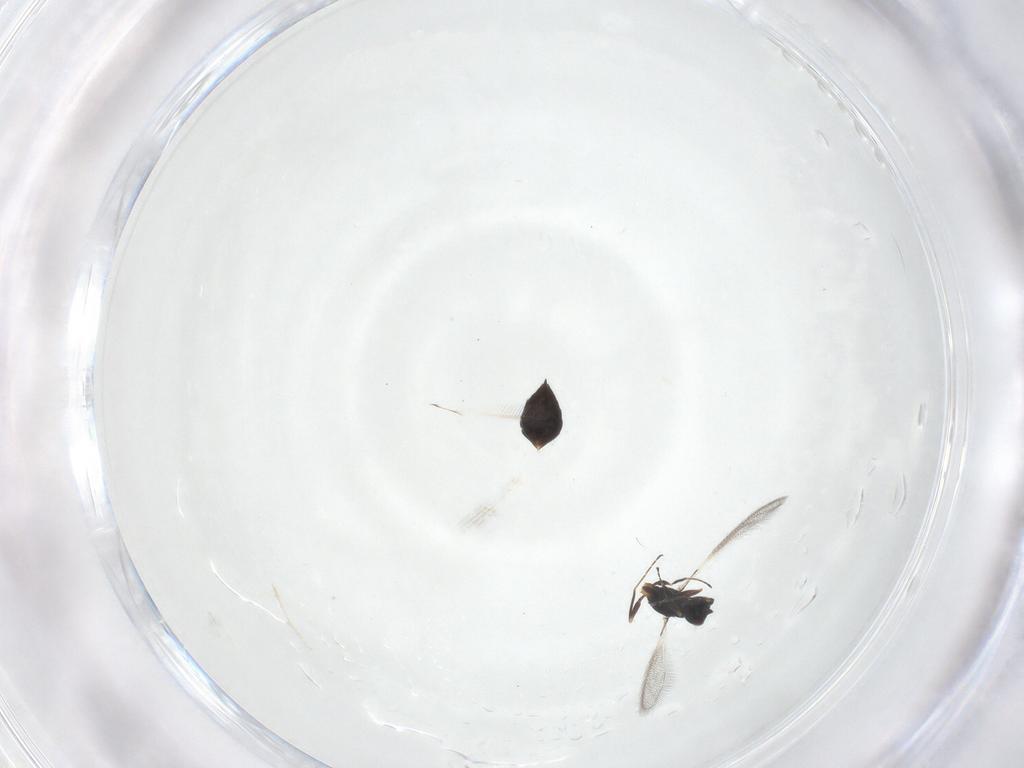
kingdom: Animalia
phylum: Arthropoda
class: Insecta
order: Hymenoptera
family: Mymaridae
